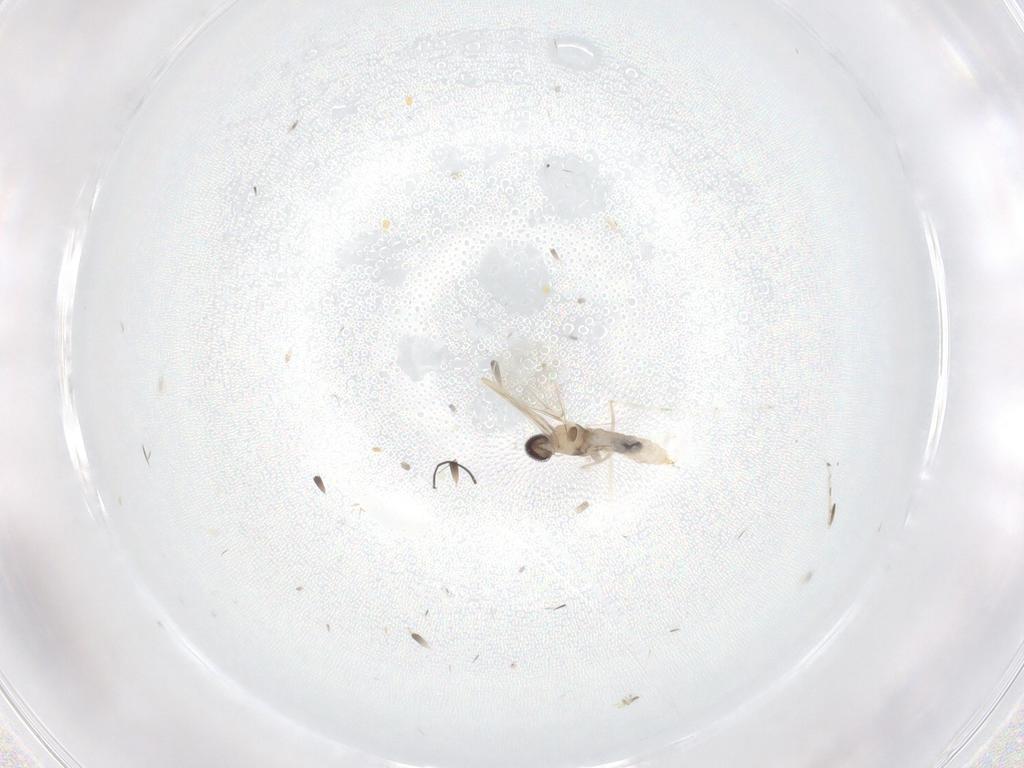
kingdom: Animalia
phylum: Arthropoda
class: Insecta
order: Diptera
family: Cecidomyiidae
